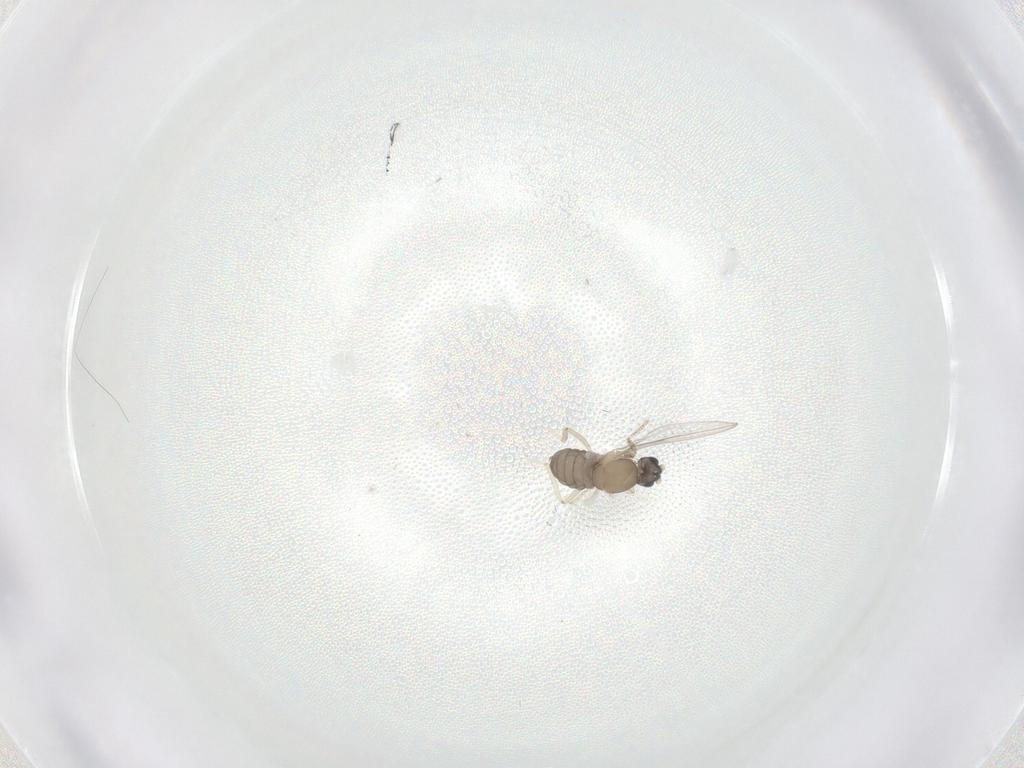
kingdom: Animalia
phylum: Arthropoda
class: Insecta
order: Diptera
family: Cecidomyiidae
